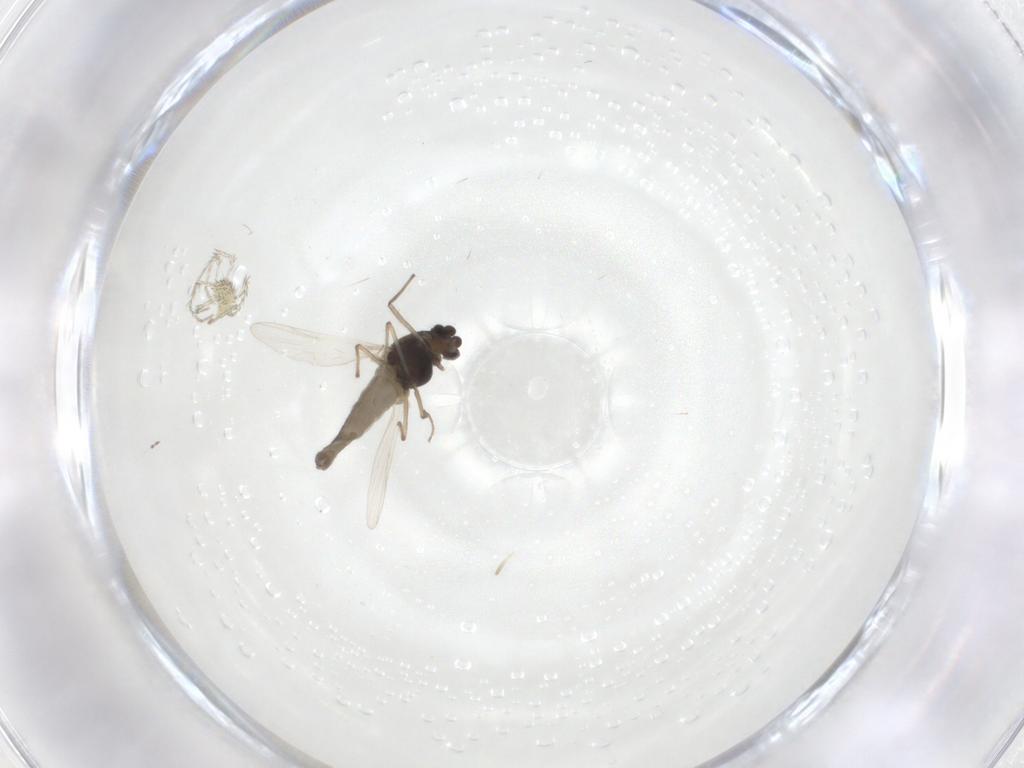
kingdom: Animalia
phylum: Arthropoda
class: Insecta
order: Diptera
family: Chironomidae
